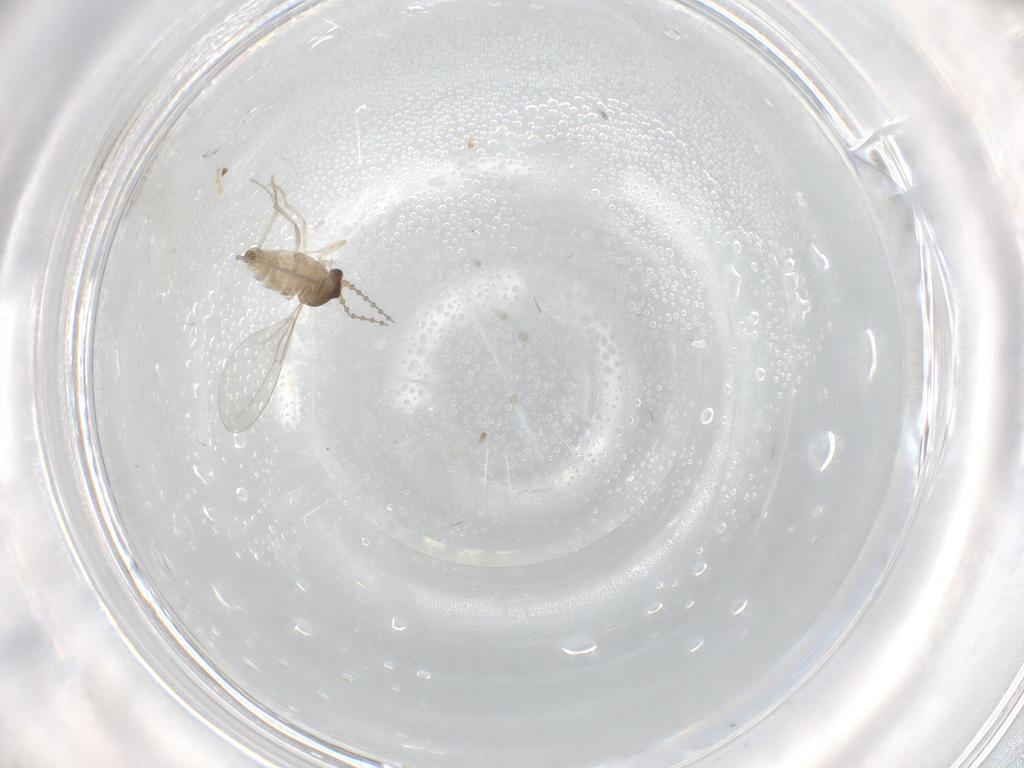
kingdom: Animalia
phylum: Arthropoda
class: Insecta
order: Diptera
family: Cecidomyiidae
